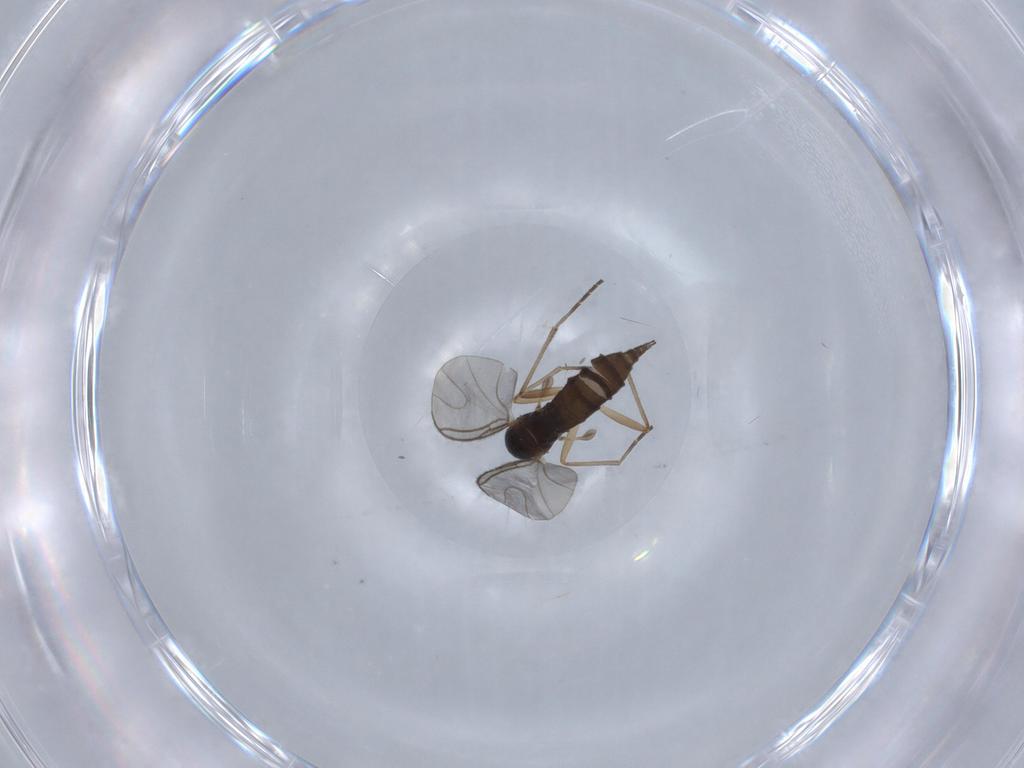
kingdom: Animalia
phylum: Arthropoda
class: Insecta
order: Diptera
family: Sciaridae
